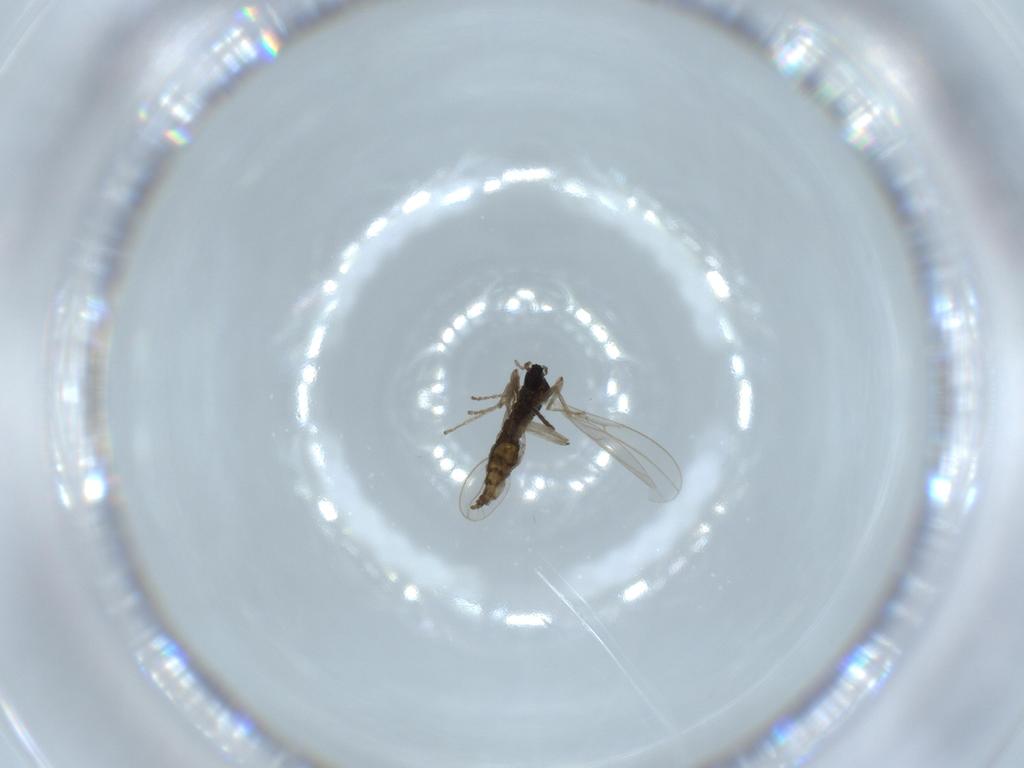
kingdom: Animalia
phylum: Arthropoda
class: Insecta
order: Diptera
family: Cecidomyiidae
